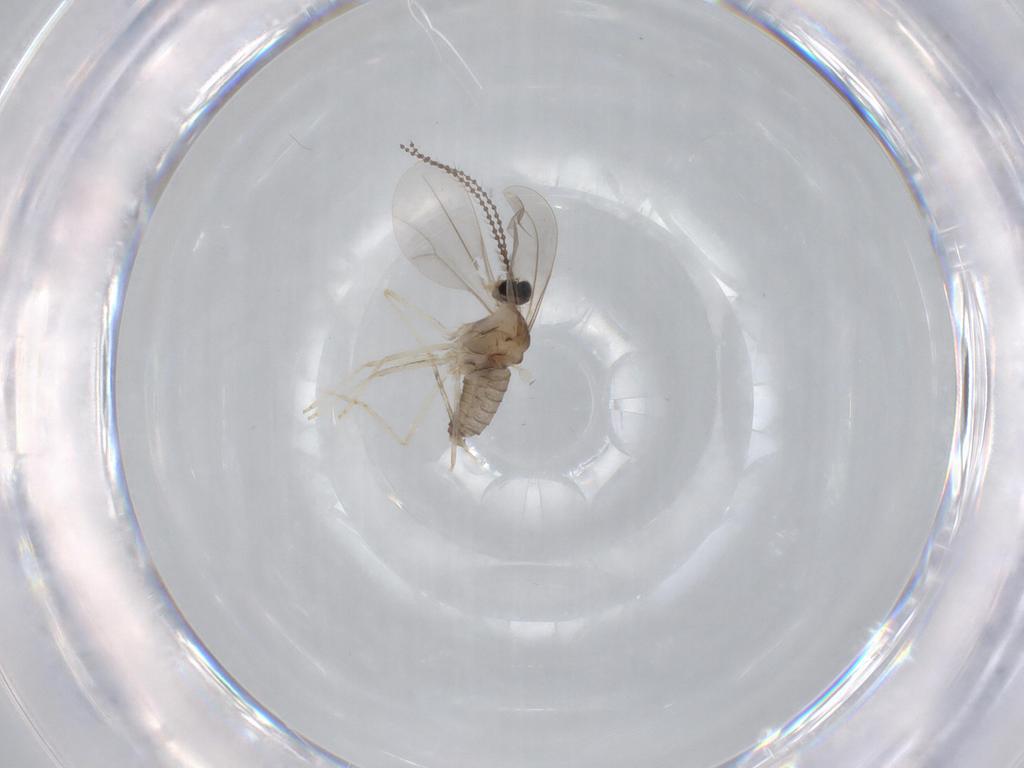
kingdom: Animalia
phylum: Arthropoda
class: Insecta
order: Diptera
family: Cecidomyiidae
